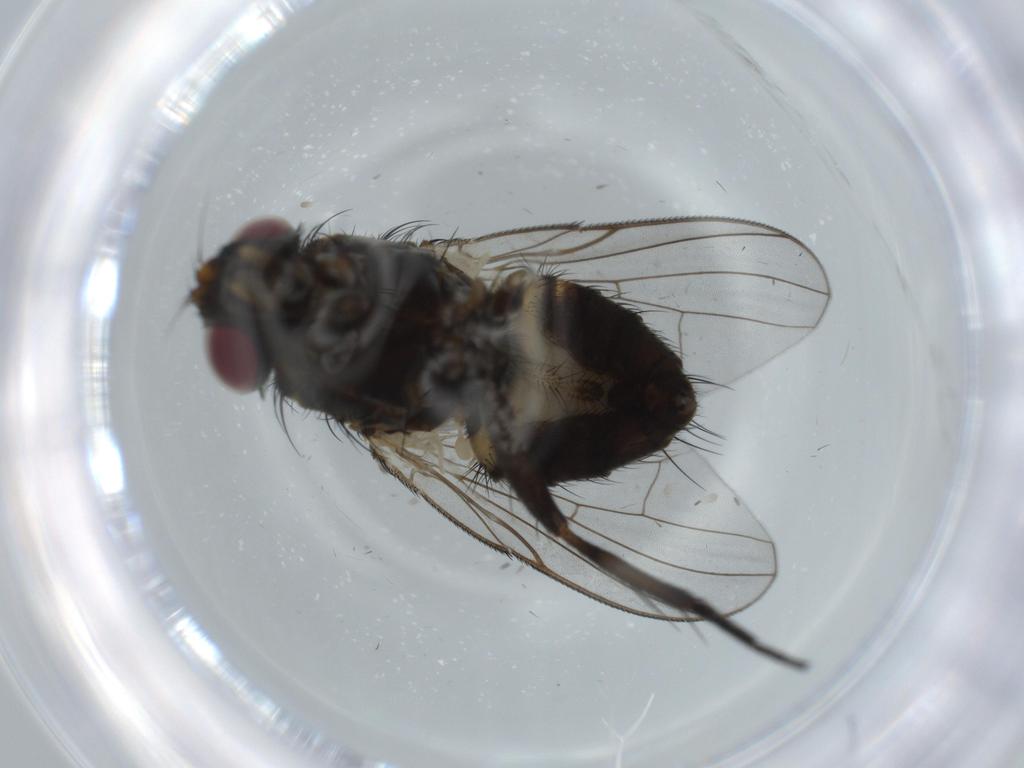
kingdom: Animalia
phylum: Arthropoda
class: Insecta
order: Diptera
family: Phoridae
